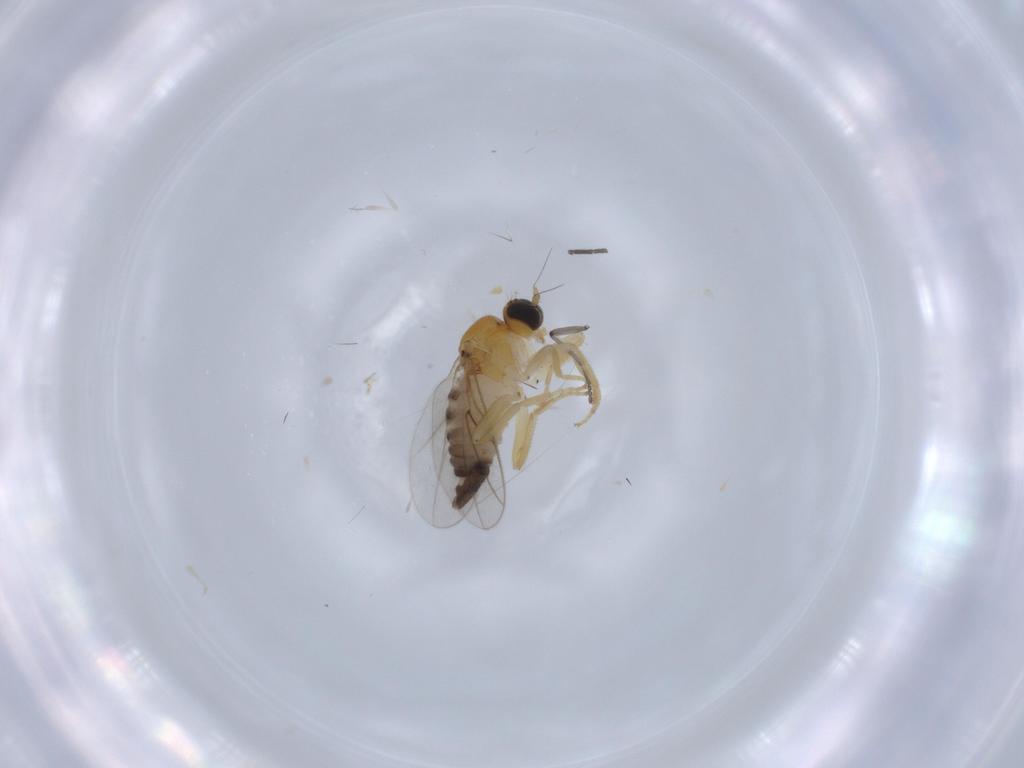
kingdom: Animalia
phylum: Arthropoda
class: Insecta
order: Diptera
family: Hybotidae
